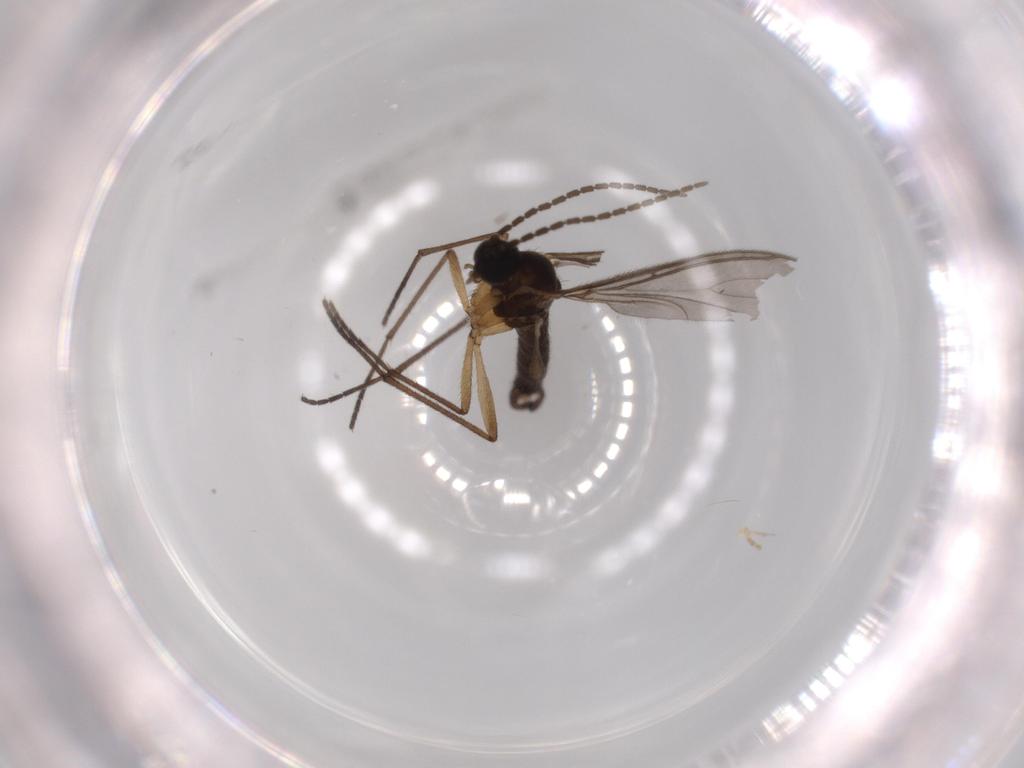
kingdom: Animalia
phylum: Arthropoda
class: Insecta
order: Diptera
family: Sciaridae
